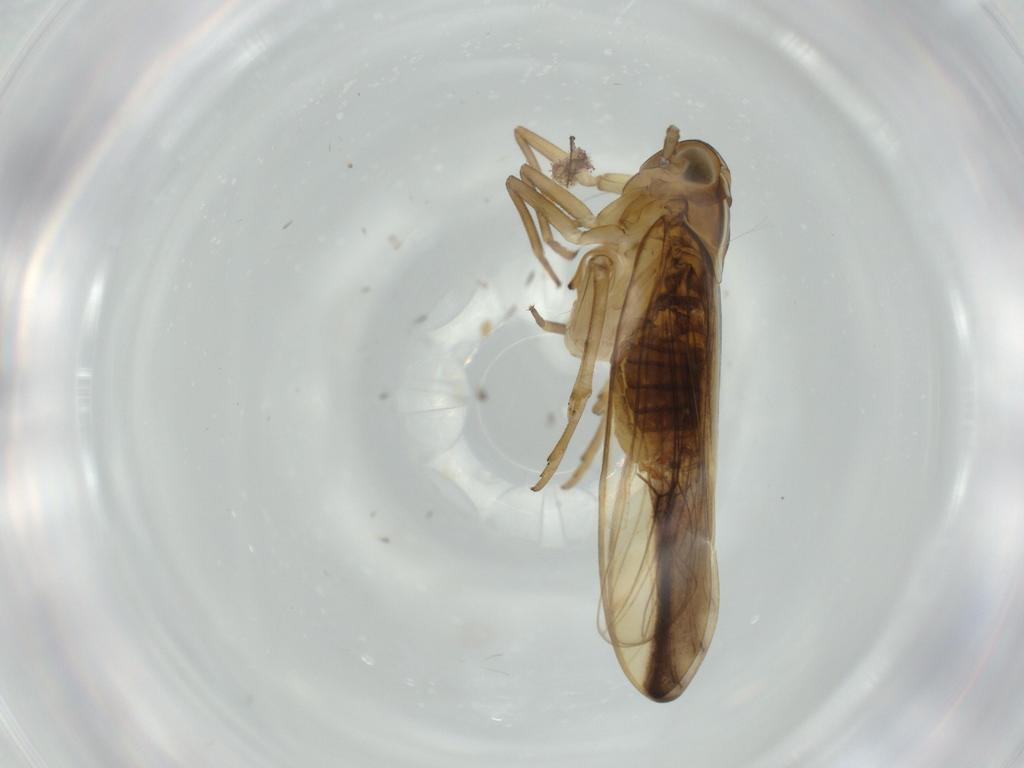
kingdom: Animalia
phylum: Arthropoda
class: Insecta
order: Hemiptera
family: Delphacidae
